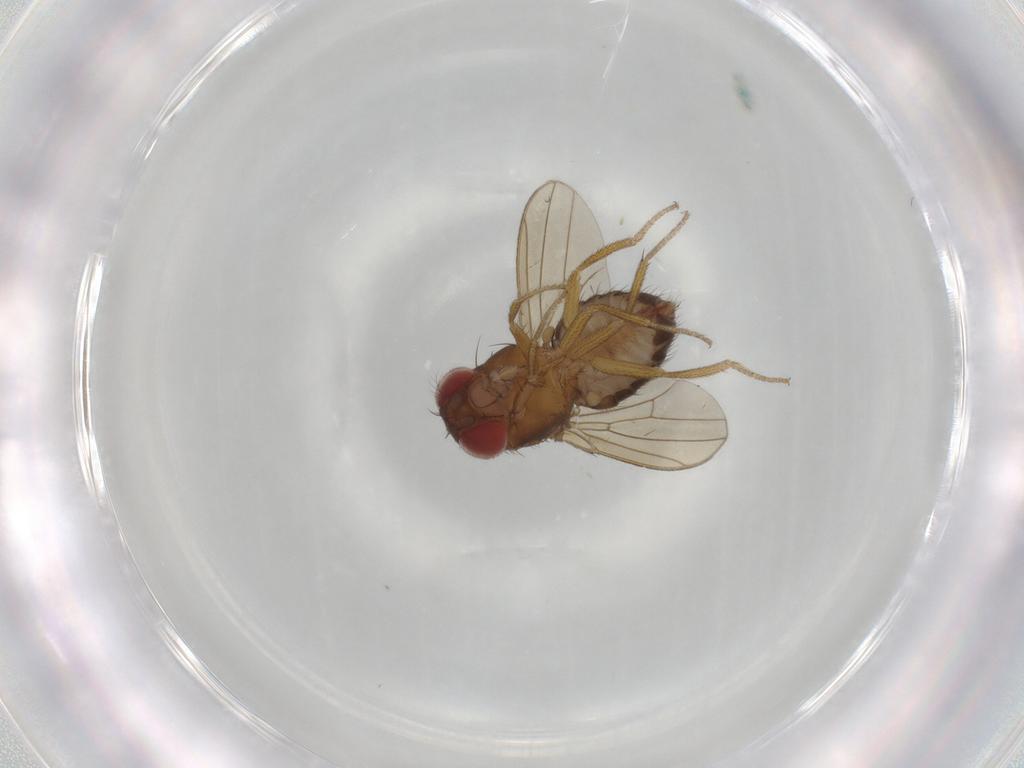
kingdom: Animalia
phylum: Arthropoda
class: Insecta
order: Diptera
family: Drosophilidae
